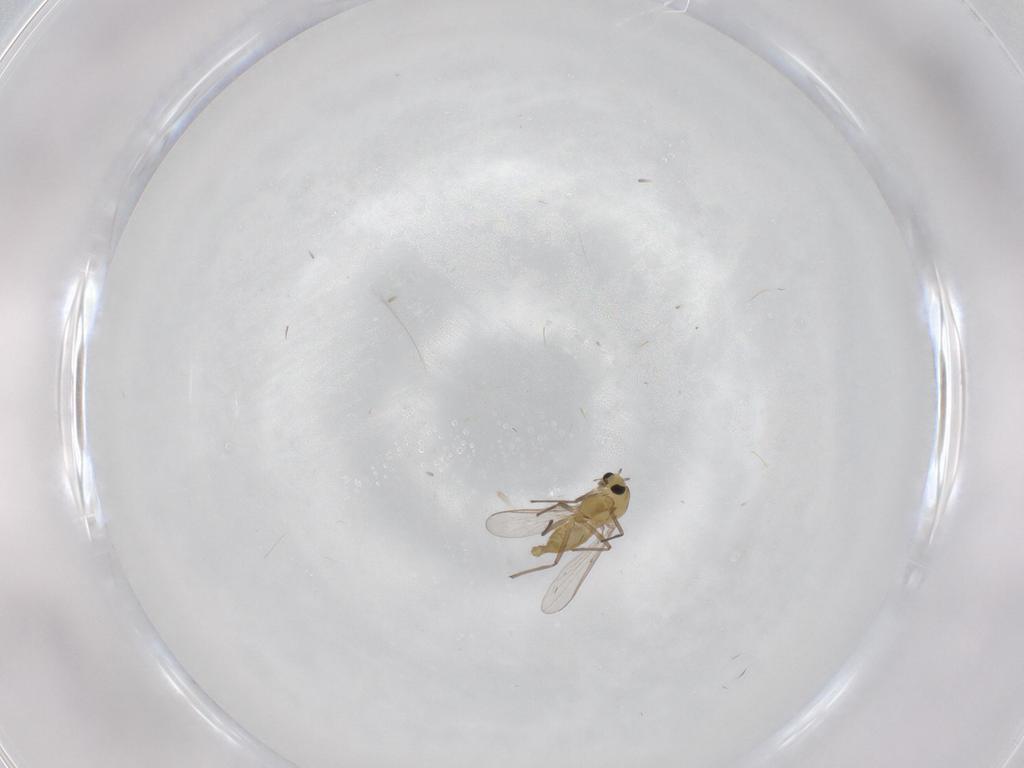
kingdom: Animalia
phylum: Arthropoda
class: Insecta
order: Diptera
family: Chironomidae
